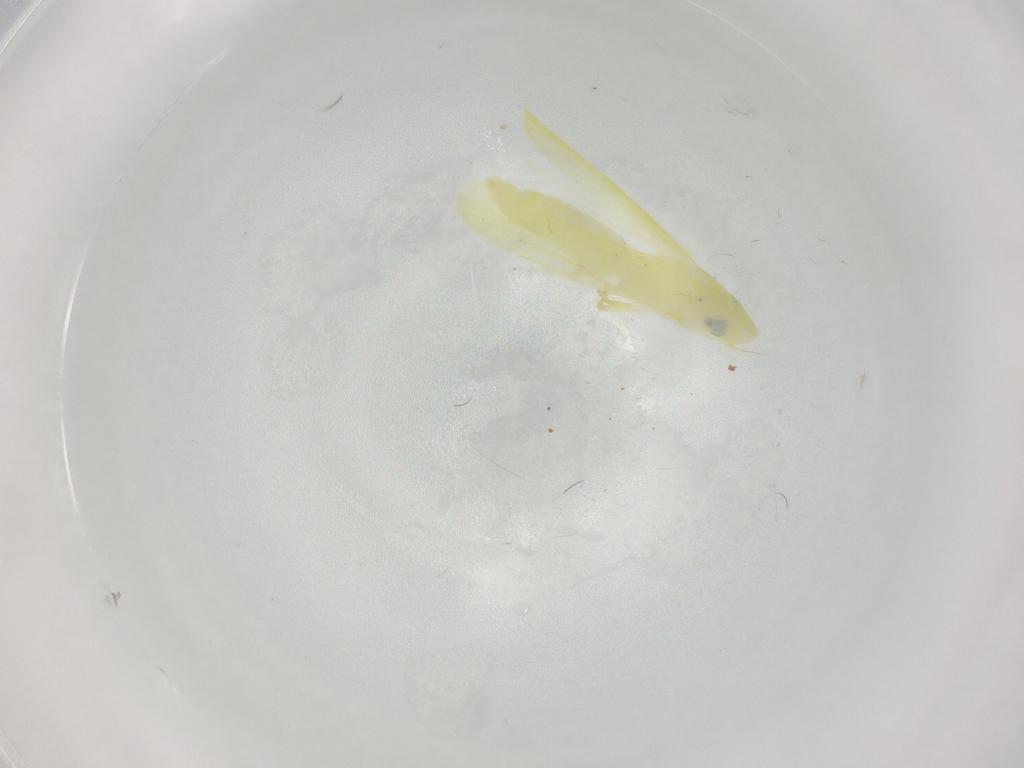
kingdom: Animalia
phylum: Arthropoda
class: Insecta
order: Hemiptera
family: Cicadellidae
